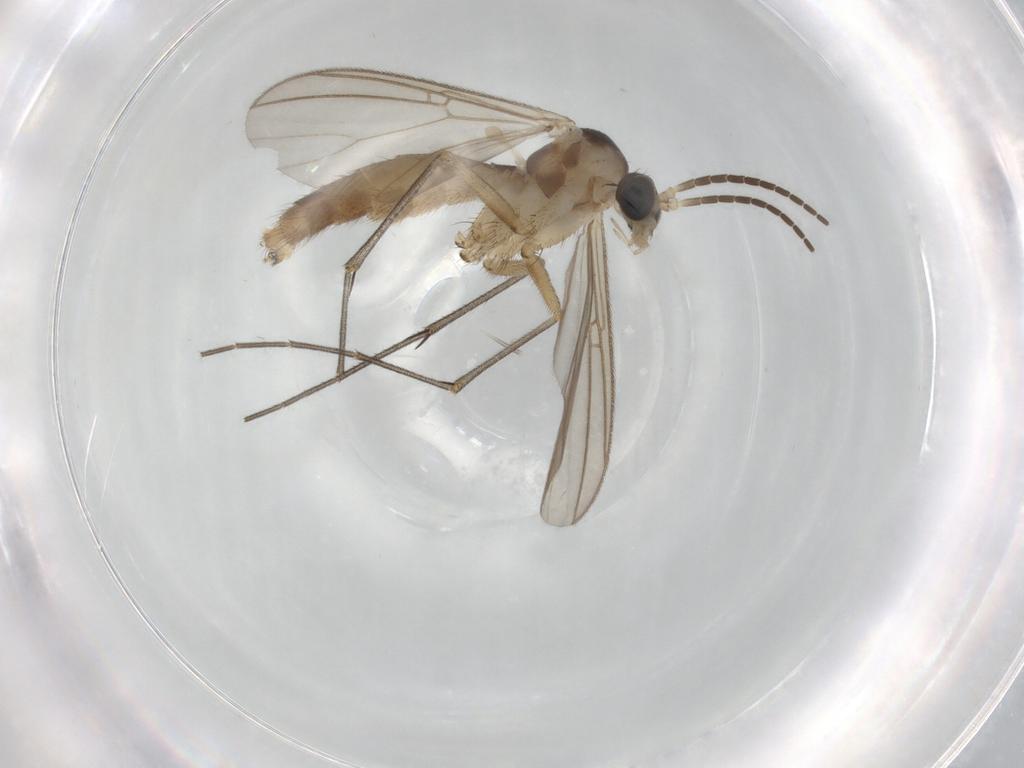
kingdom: Animalia
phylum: Arthropoda
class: Insecta
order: Diptera
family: Mycetophilidae
